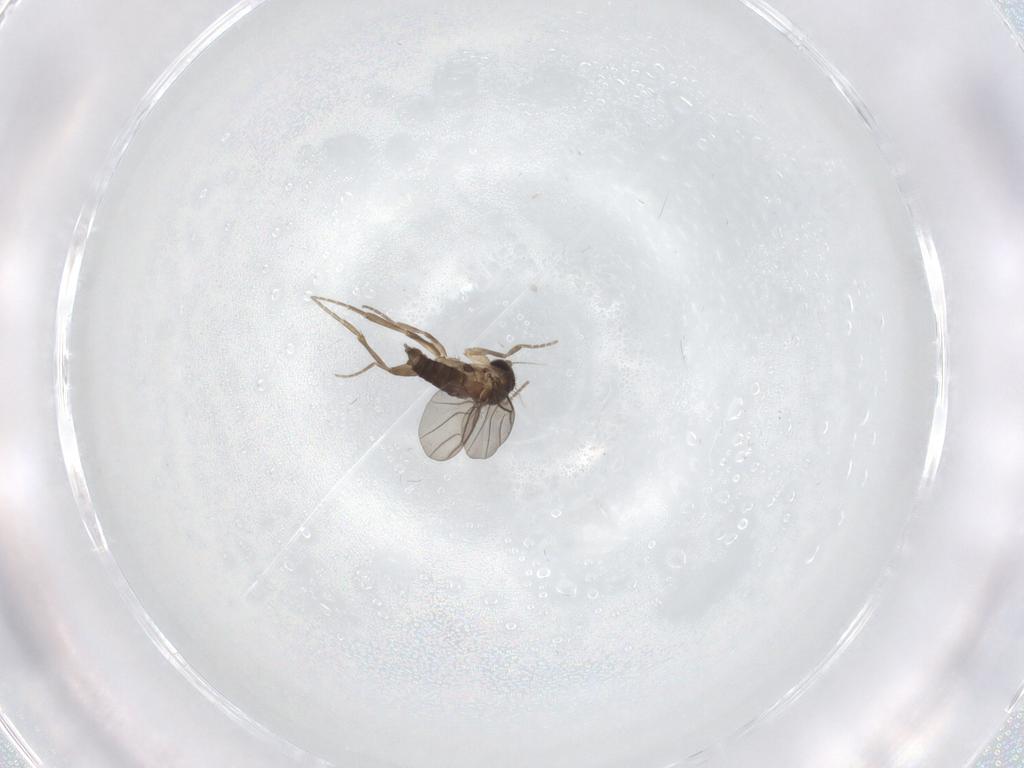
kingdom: Animalia
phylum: Arthropoda
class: Insecta
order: Diptera
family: Phoridae
